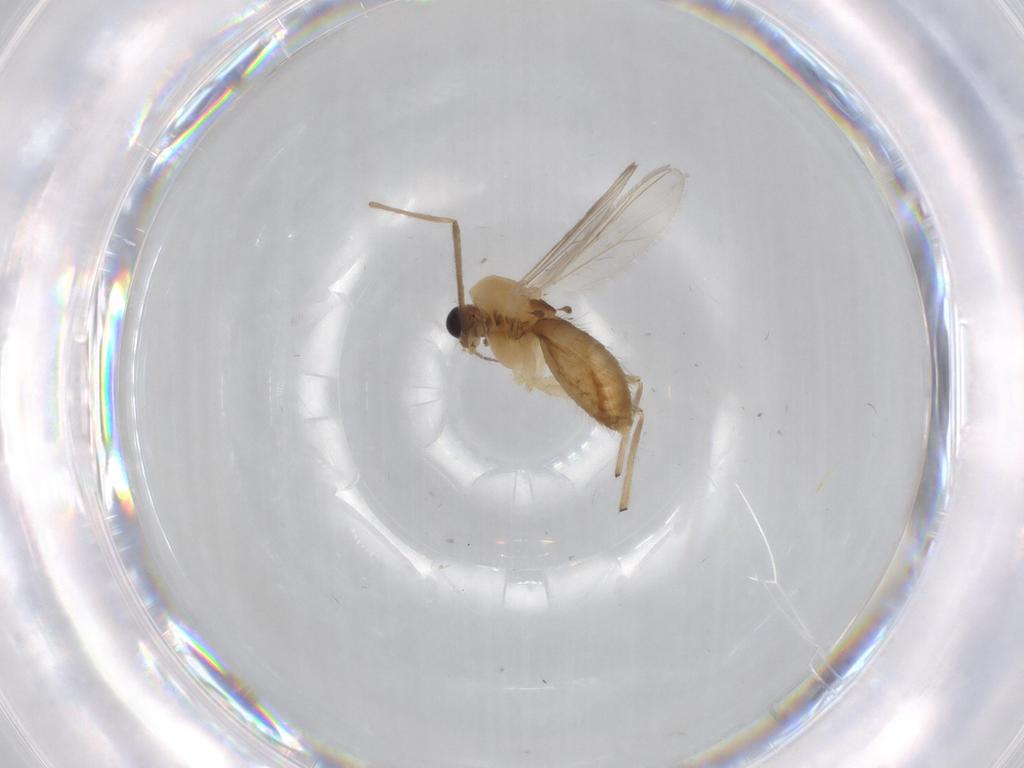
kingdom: Animalia
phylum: Arthropoda
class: Insecta
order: Diptera
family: Chironomidae
